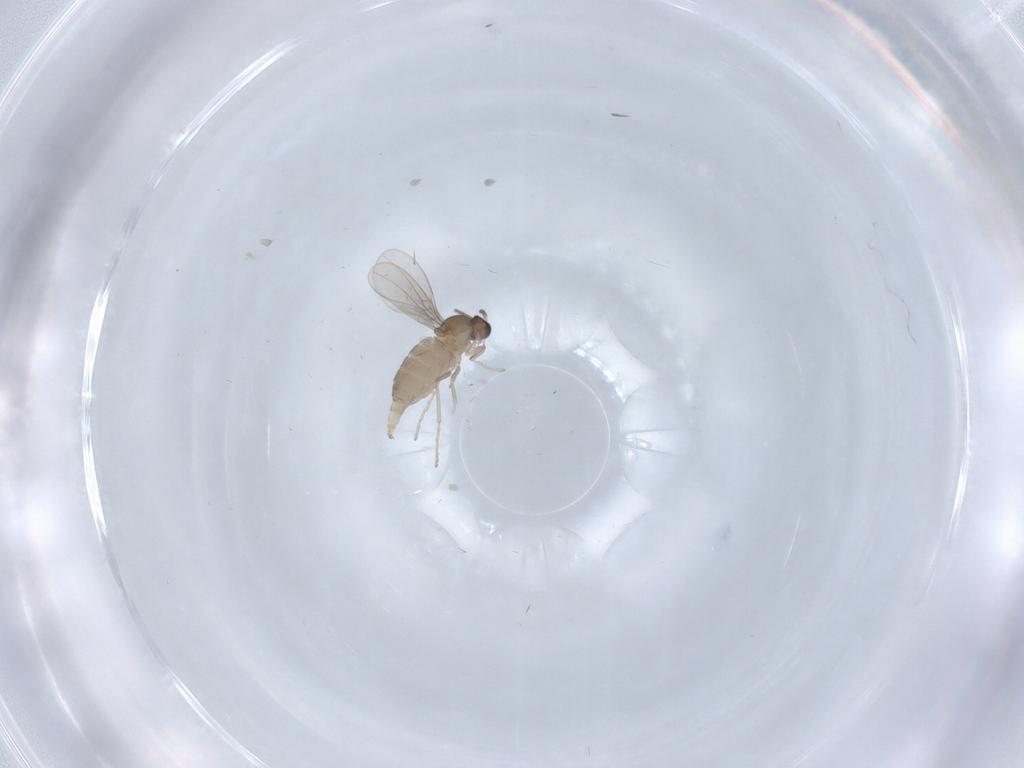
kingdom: Animalia
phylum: Arthropoda
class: Insecta
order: Diptera
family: Cecidomyiidae
